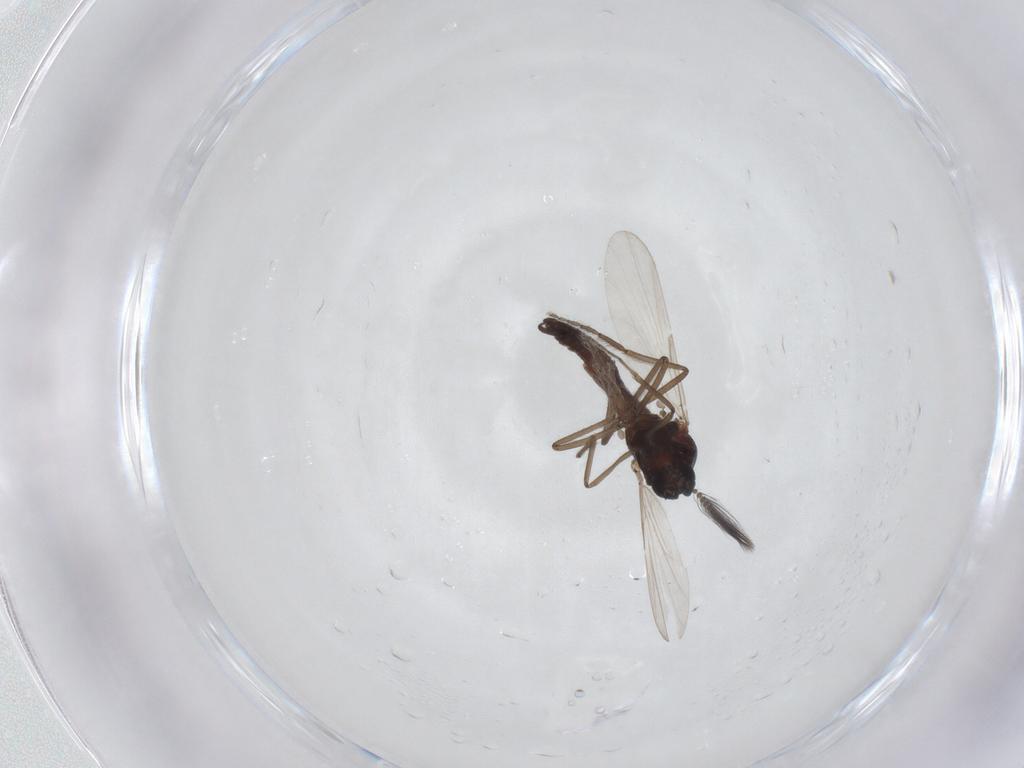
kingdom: Animalia
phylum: Arthropoda
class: Insecta
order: Diptera
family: Ceratopogonidae
